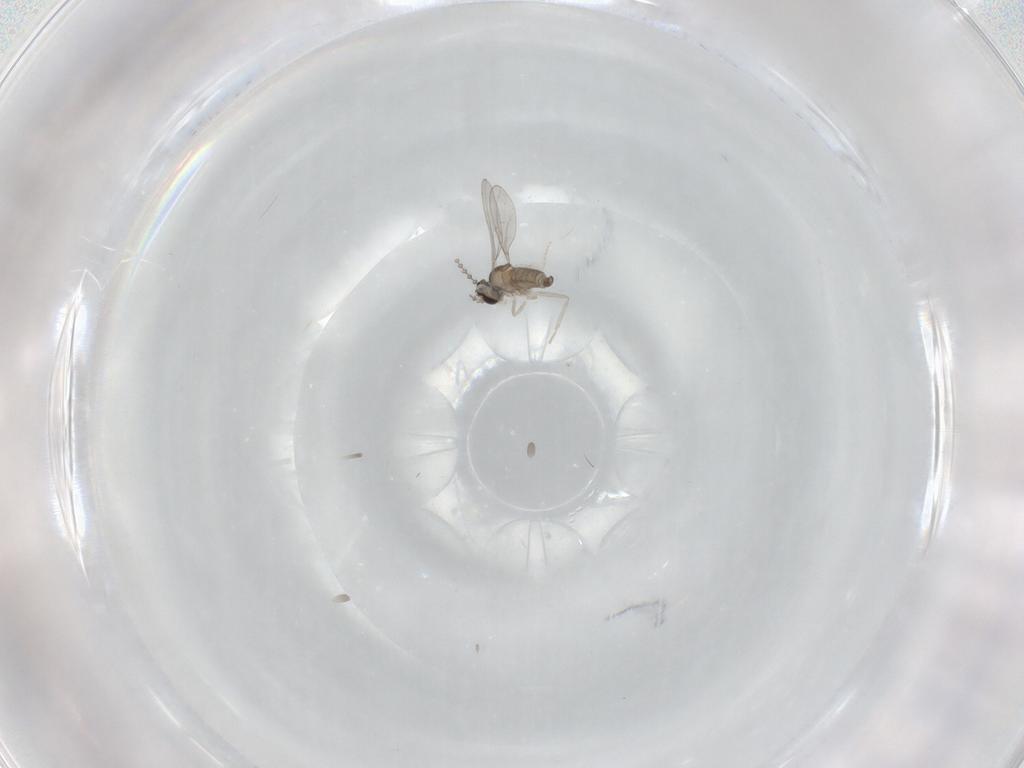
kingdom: Animalia
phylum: Arthropoda
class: Insecta
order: Diptera
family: Cecidomyiidae
